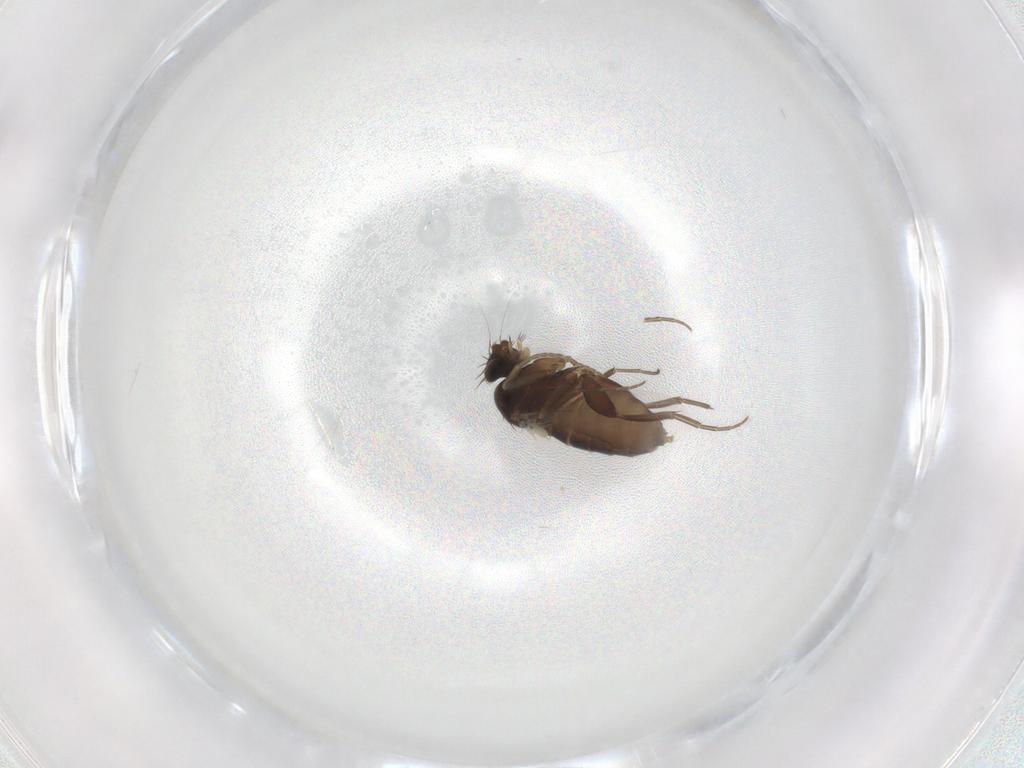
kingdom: Animalia
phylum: Arthropoda
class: Insecta
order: Diptera
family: Phoridae
